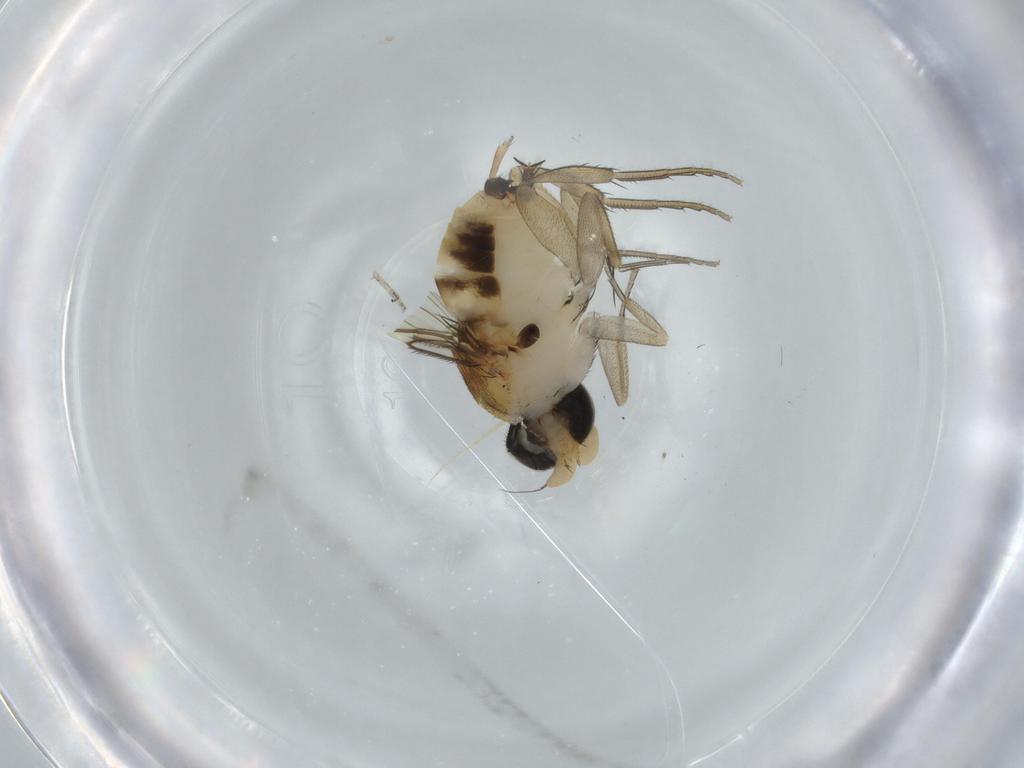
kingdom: Animalia
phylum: Arthropoda
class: Insecta
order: Diptera
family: Phoridae
